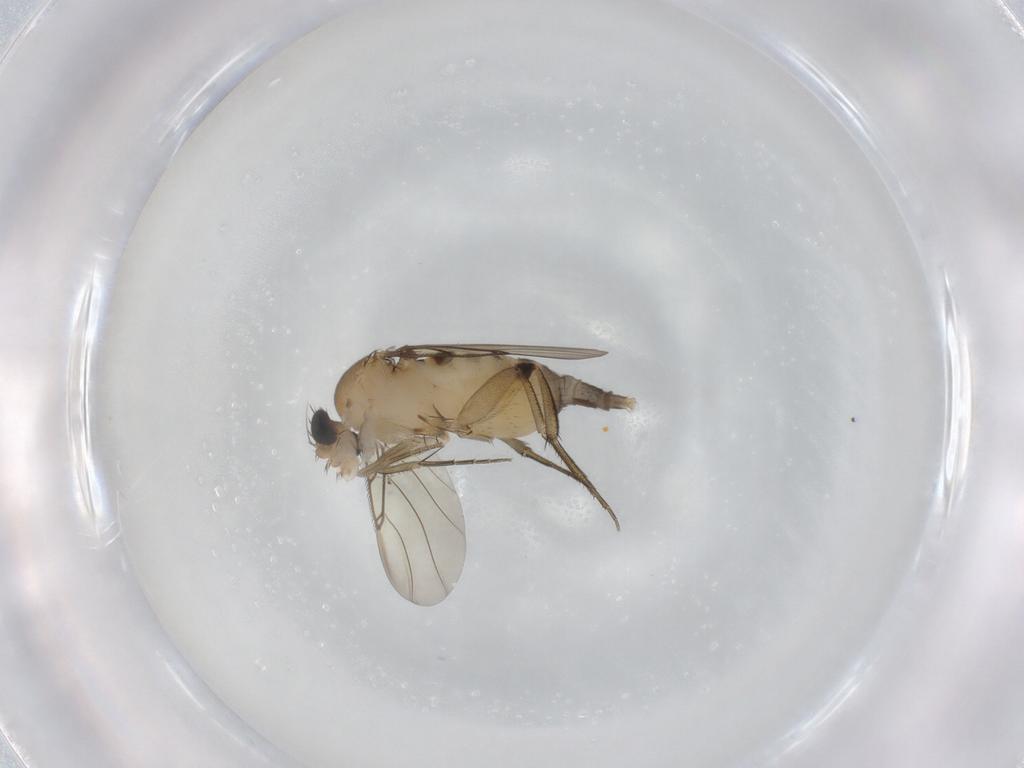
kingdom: Animalia
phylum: Arthropoda
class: Insecta
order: Diptera
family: Phoridae
